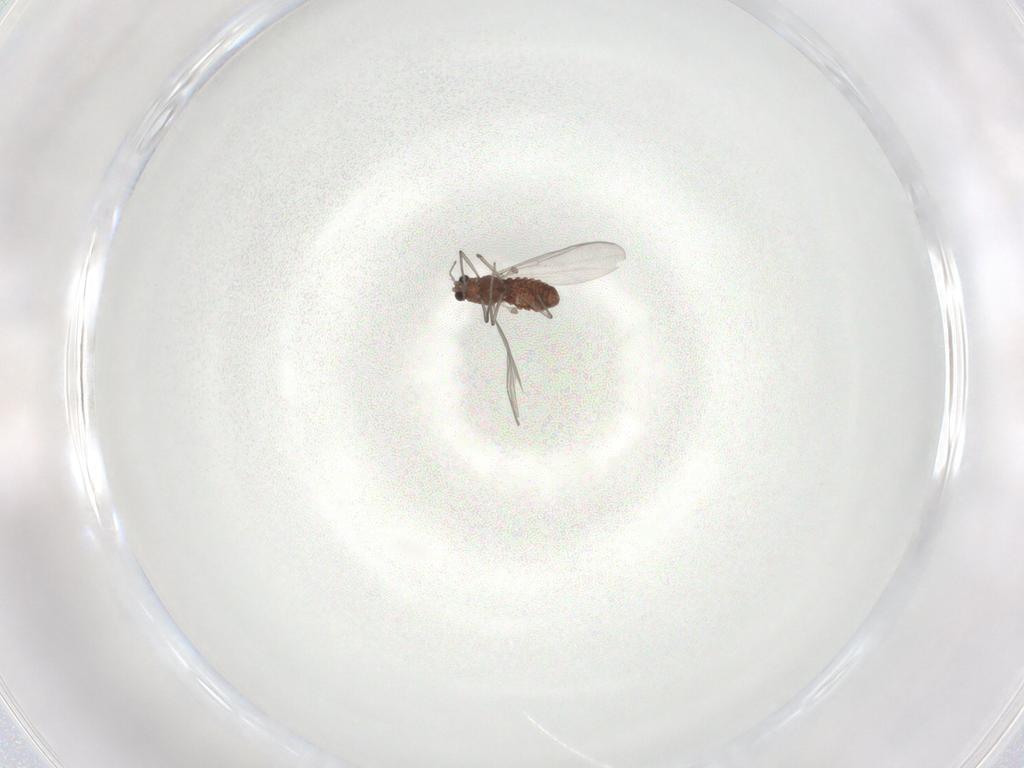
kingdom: Animalia
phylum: Arthropoda
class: Insecta
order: Diptera
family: Chironomidae
